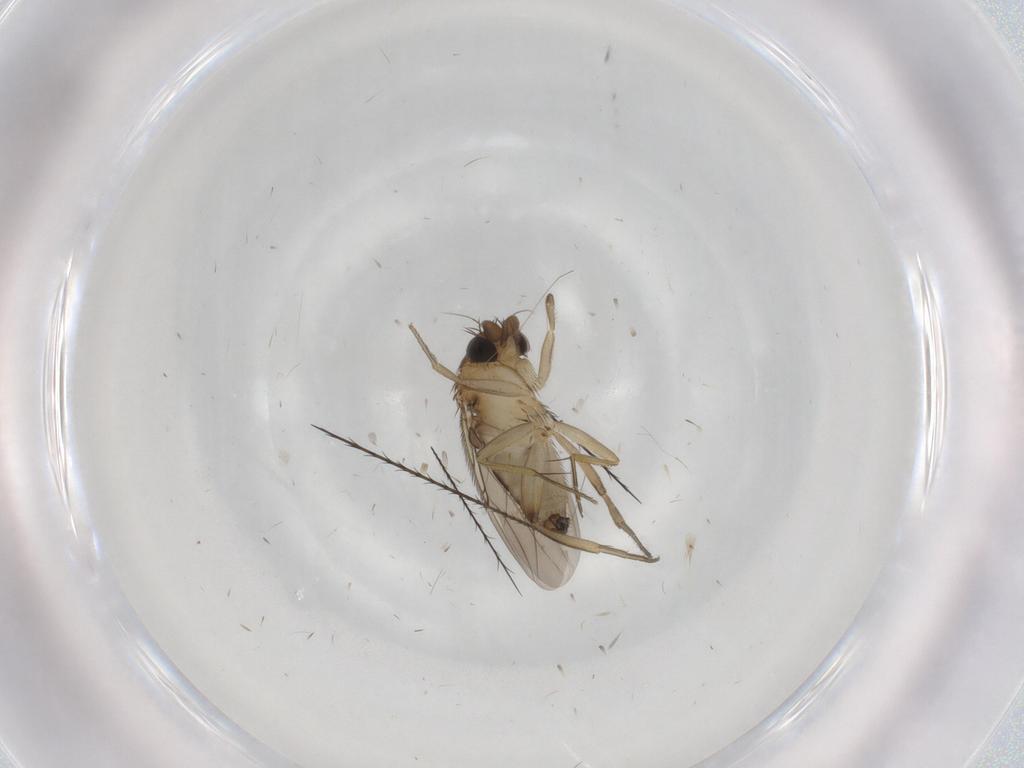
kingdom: Animalia
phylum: Arthropoda
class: Insecta
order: Diptera
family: Phoridae
